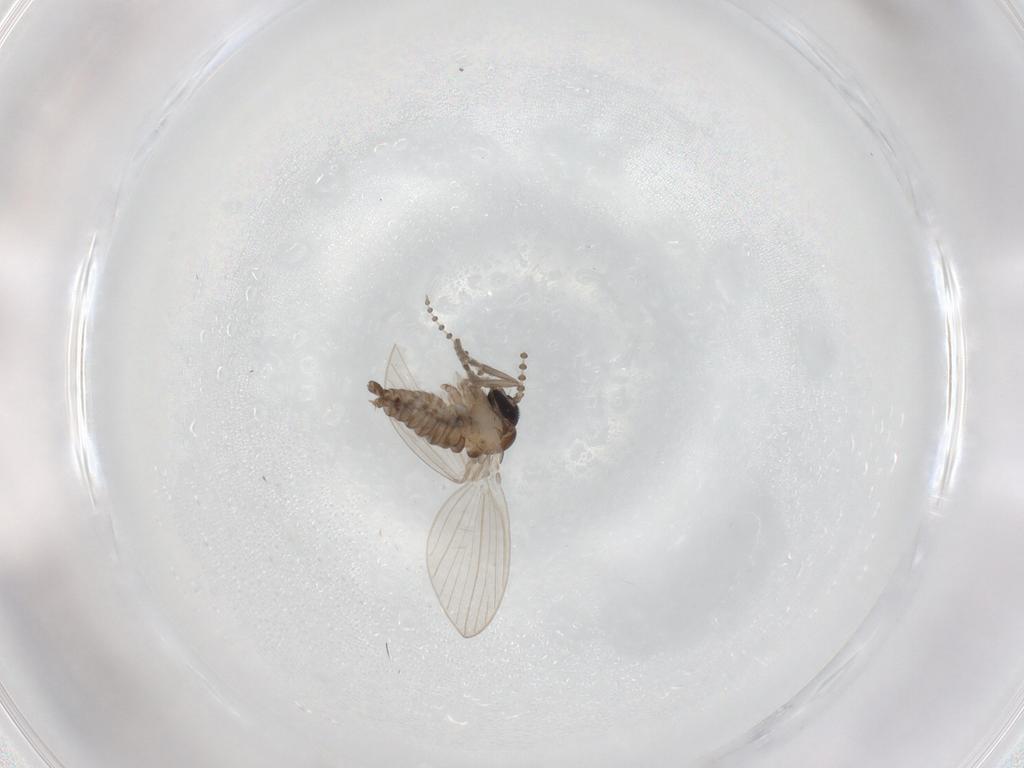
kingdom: Animalia
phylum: Arthropoda
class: Insecta
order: Diptera
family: Psychodidae
